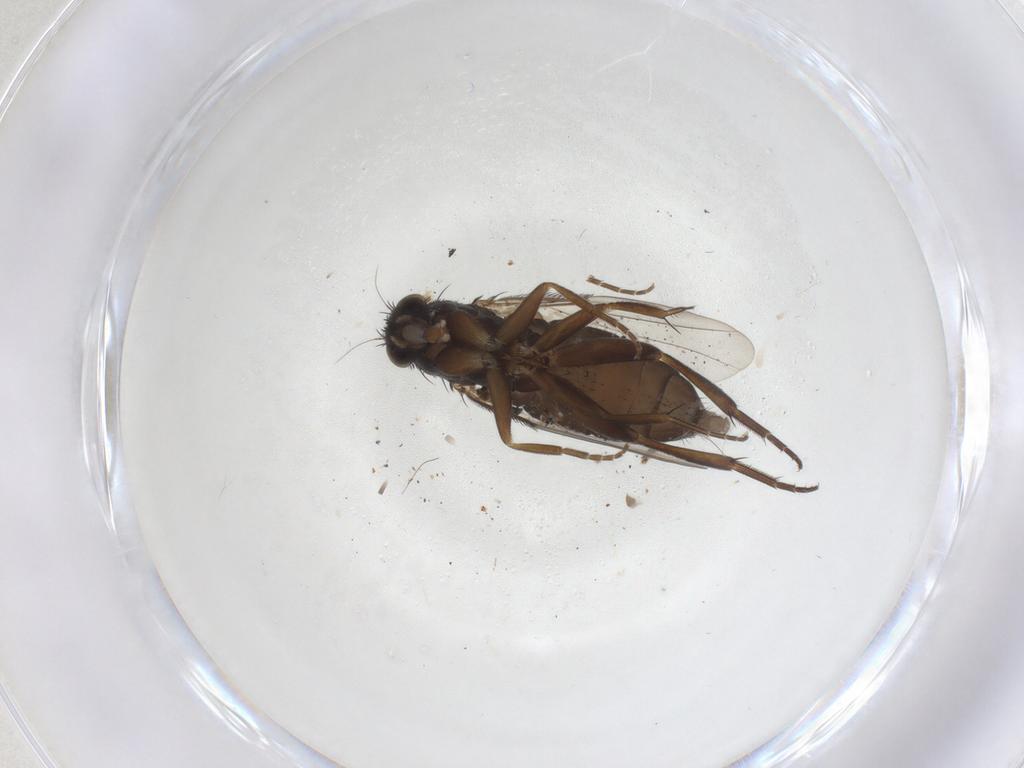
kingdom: Animalia
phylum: Arthropoda
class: Insecta
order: Diptera
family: Phoridae
